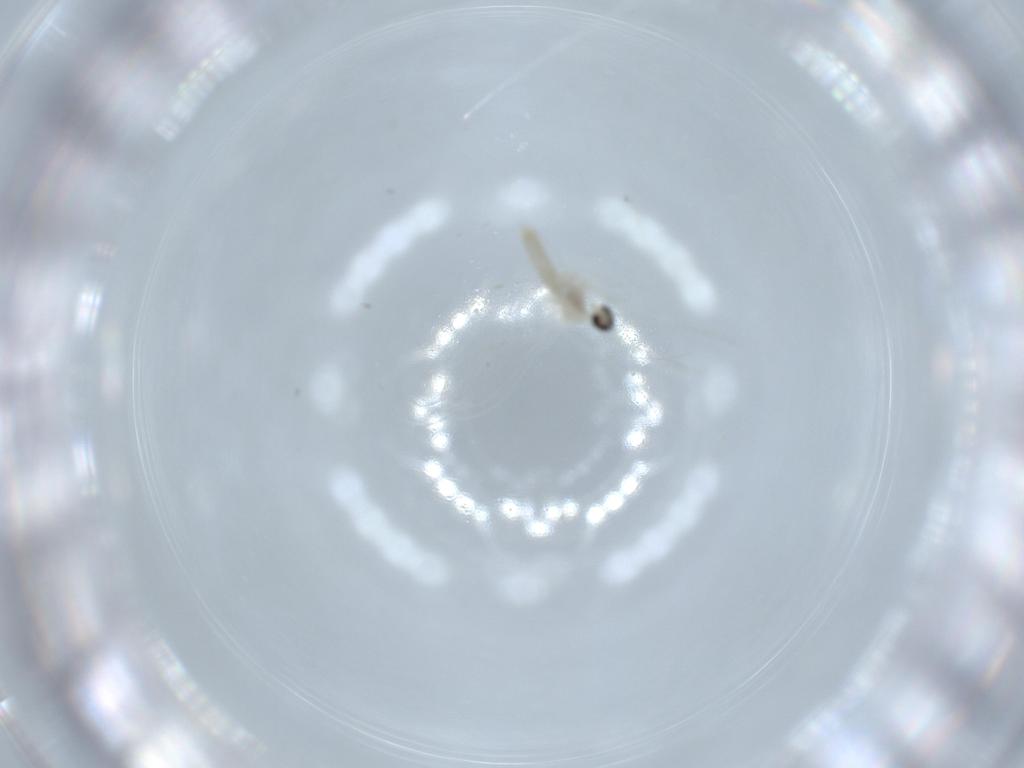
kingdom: Animalia
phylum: Arthropoda
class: Insecta
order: Diptera
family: Cecidomyiidae
